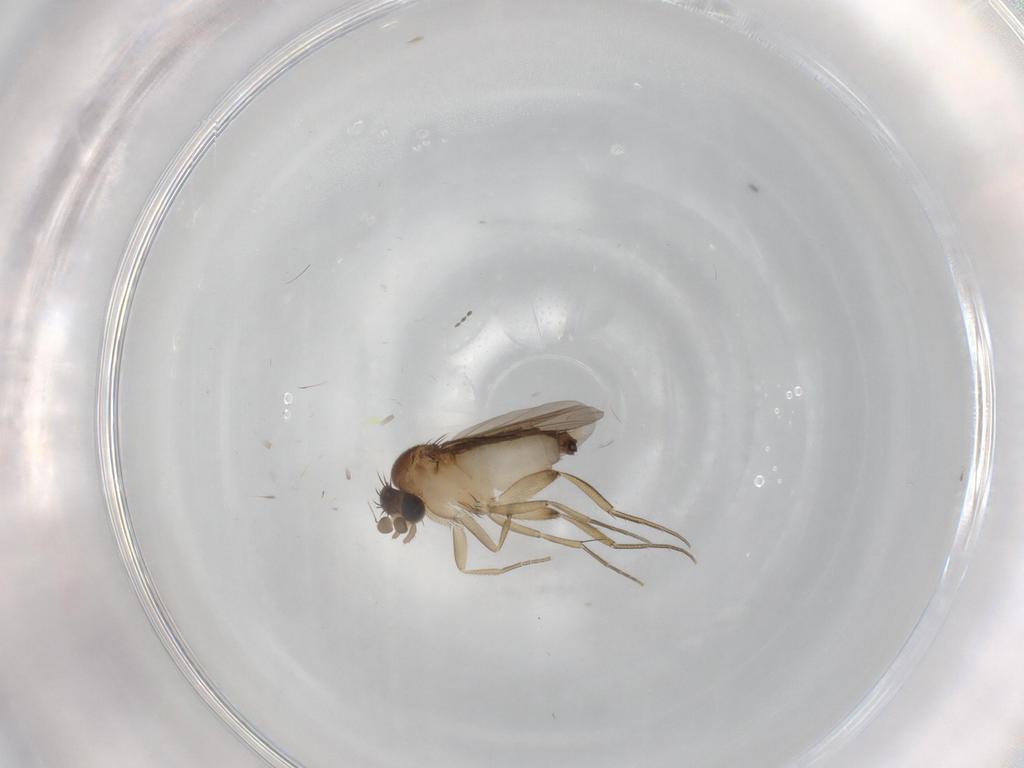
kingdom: Animalia
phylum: Arthropoda
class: Insecta
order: Diptera
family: Phoridae
